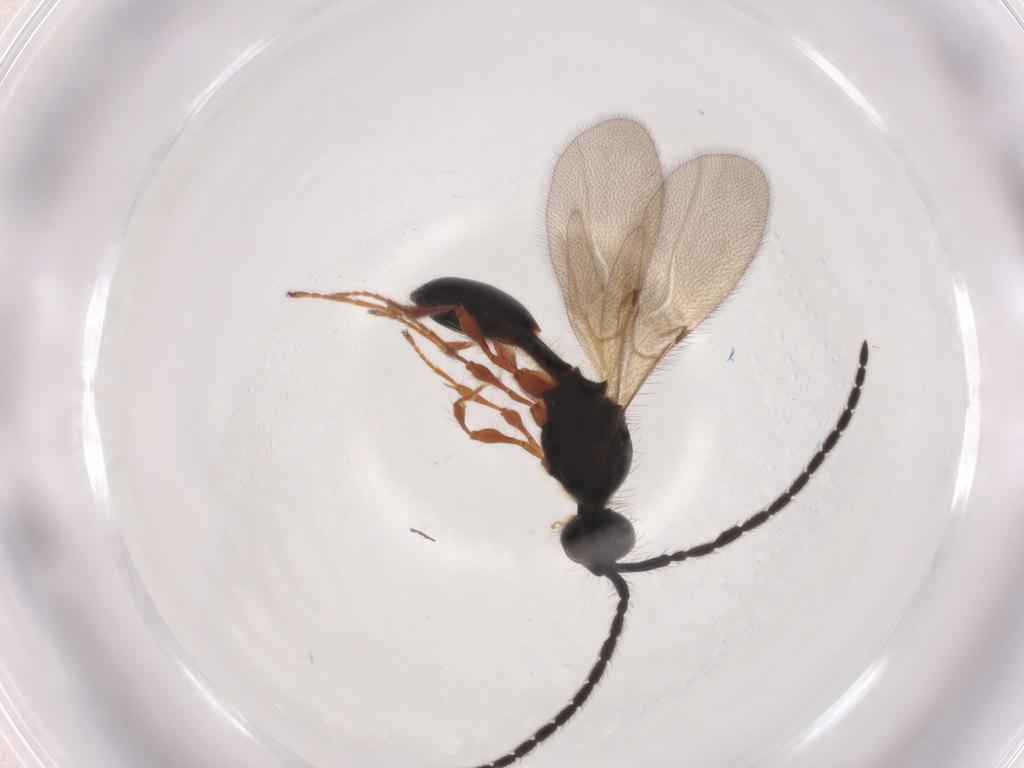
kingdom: Animalia
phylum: Arthropoda
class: Insecta
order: Hymenoptera
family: Diapriidae
